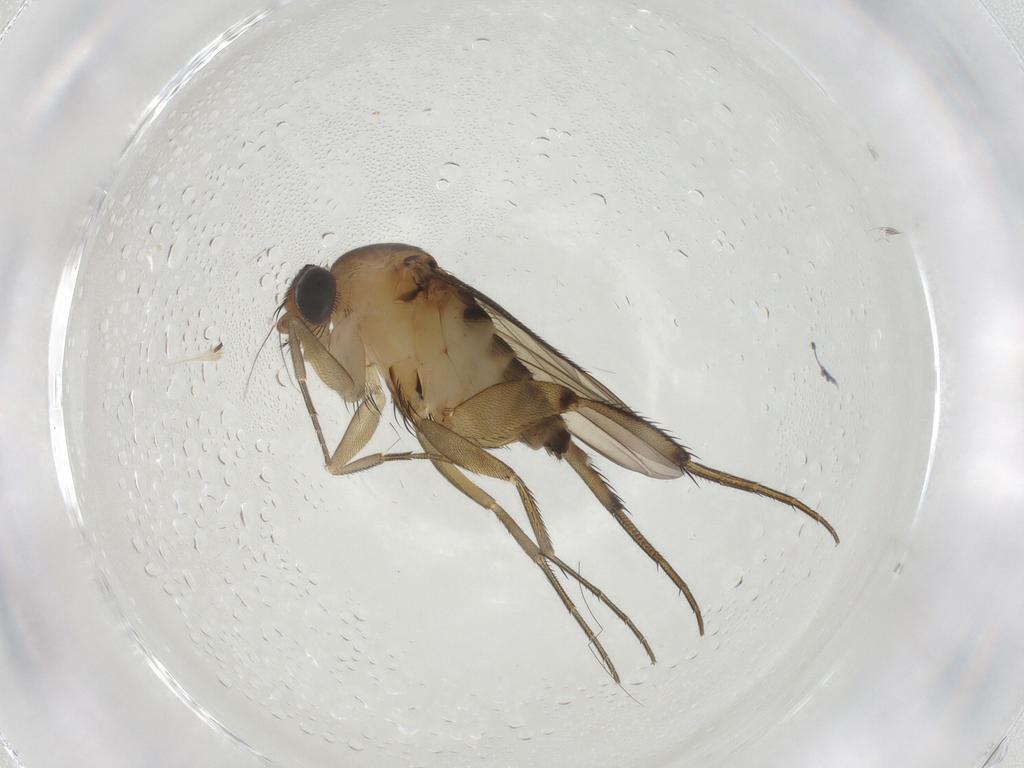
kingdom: Animalia
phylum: Arthropoda
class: Insecta
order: Diptera
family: Phoridae
